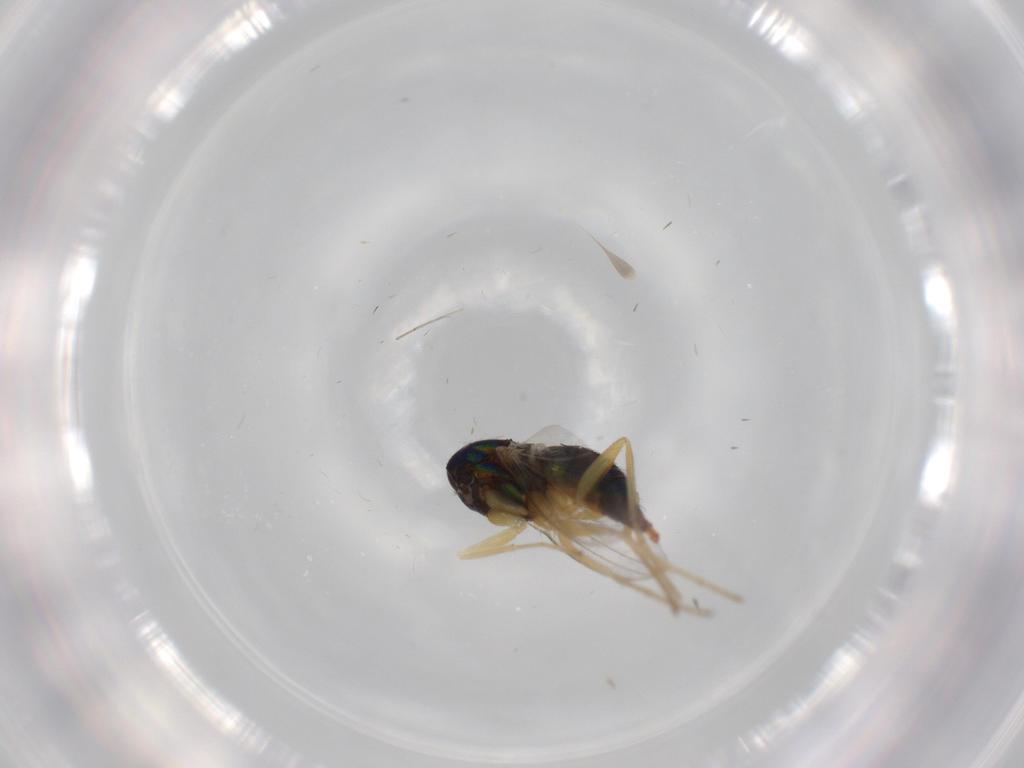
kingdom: Animalia
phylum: Arthropoda
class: Insecta
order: Diptera
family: Dolichopodidae
